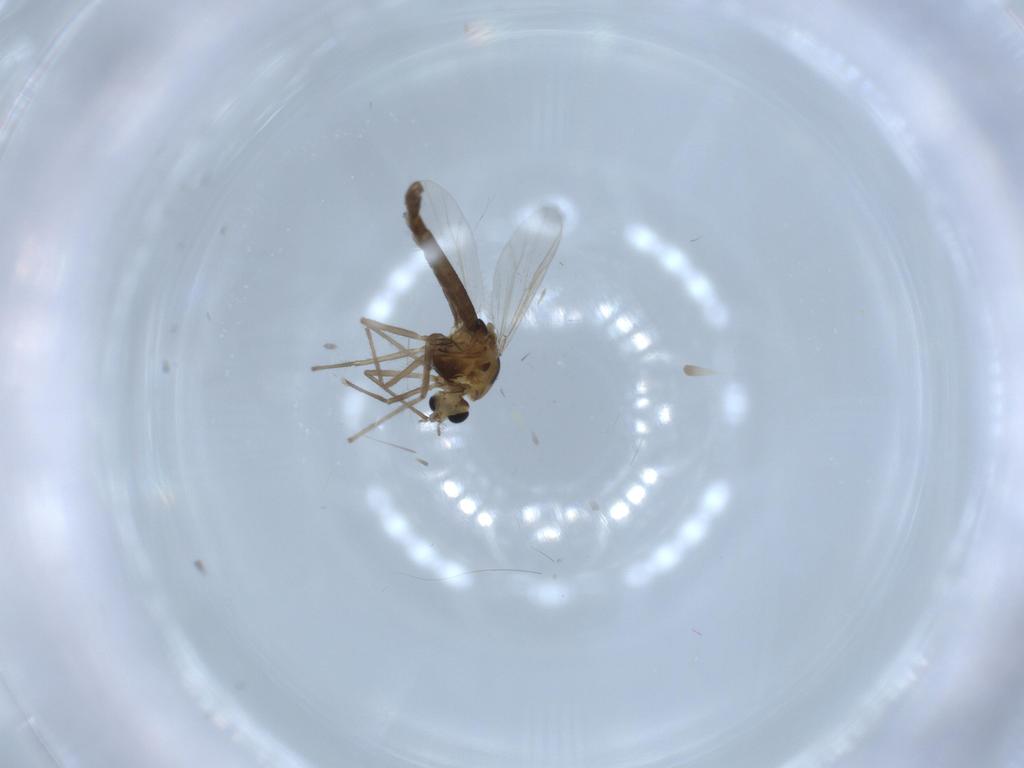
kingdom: Animalia
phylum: Arthropoda
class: Insecta
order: Diptera
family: Chironomidae
